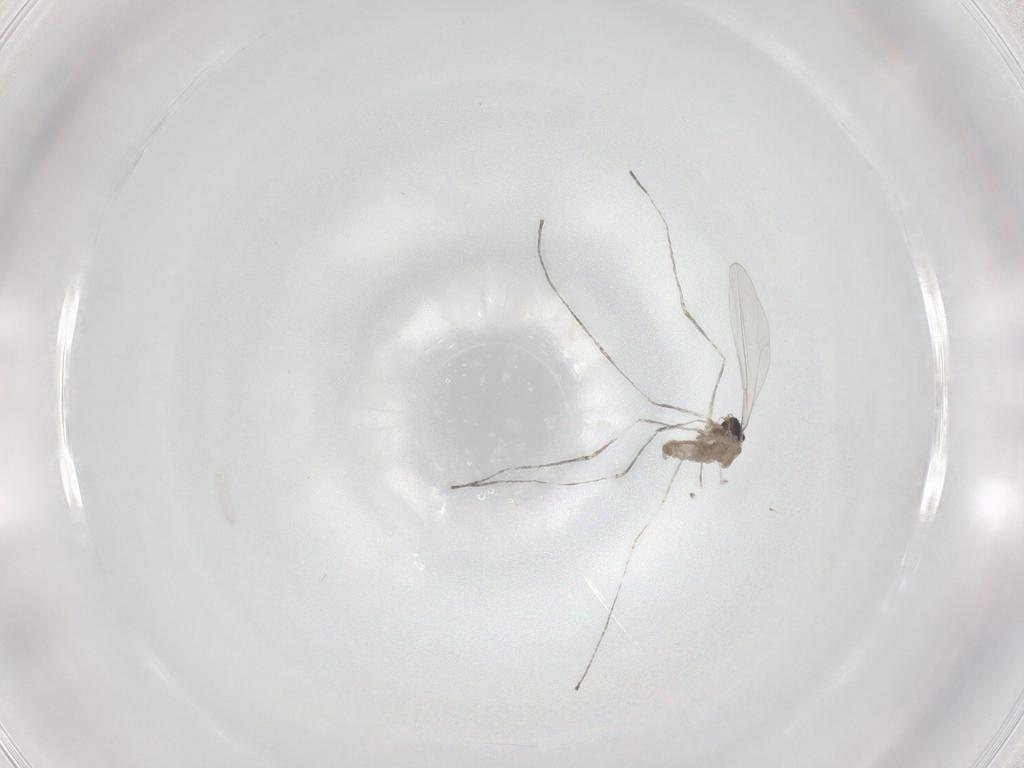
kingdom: Animalia
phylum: Arthropoda
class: Insecta
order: Diptera
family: Cecidomyiidae
